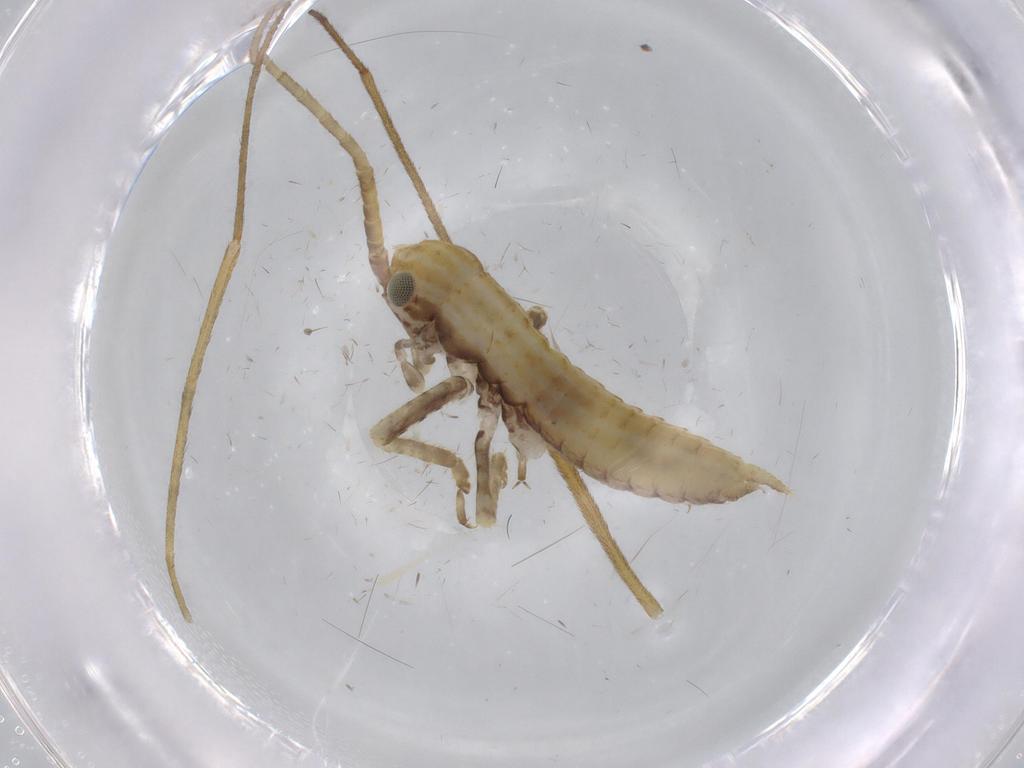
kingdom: Animalia
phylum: Arthropoda
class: Insecta
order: Orthoptera
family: Gryllidae
